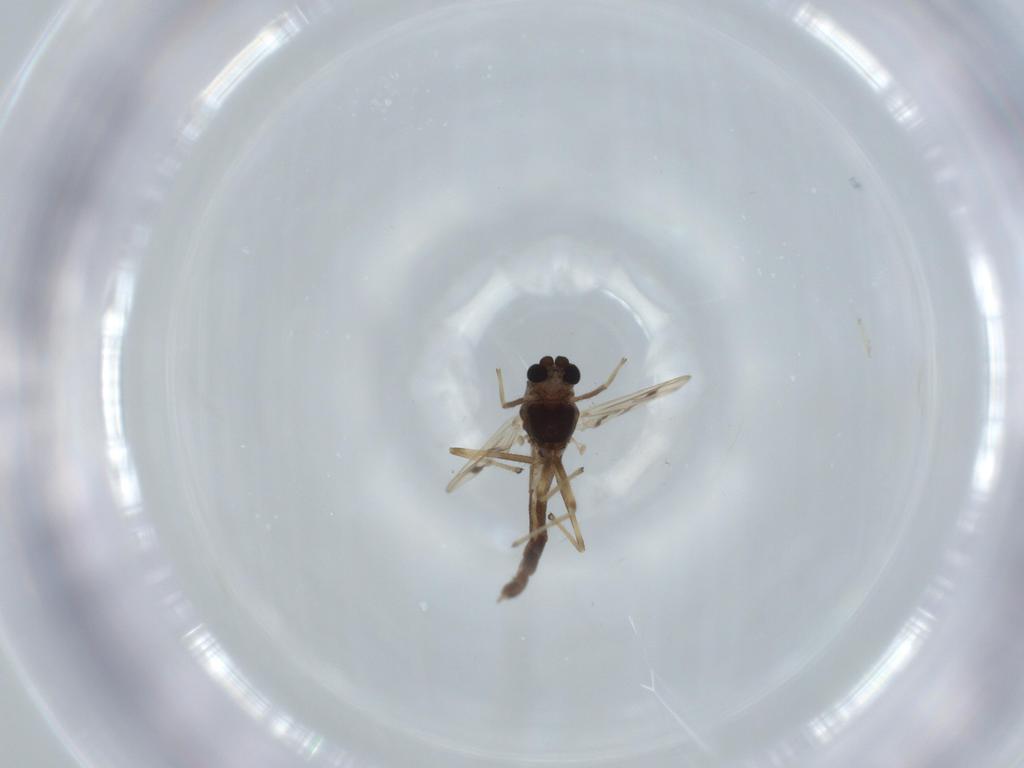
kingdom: Animalia
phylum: Arthropoda
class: Insecta
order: Diptera
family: Chironomidae
